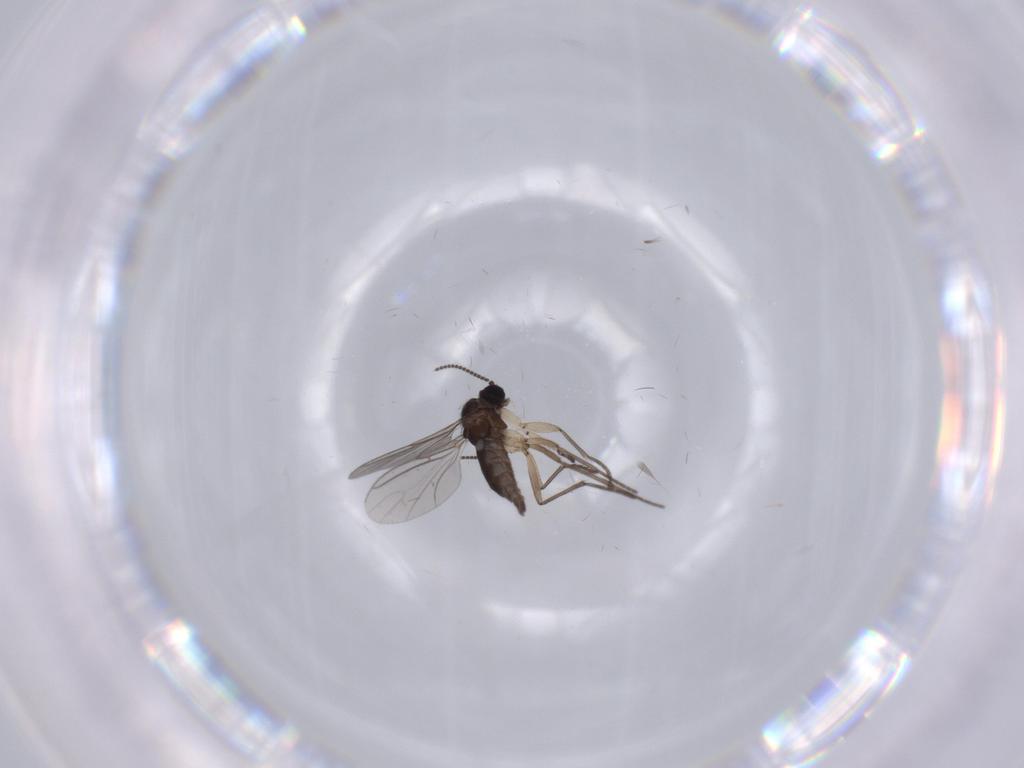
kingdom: Animalia
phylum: Arthropoda
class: Insecta
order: Diptera
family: Sciaridae
